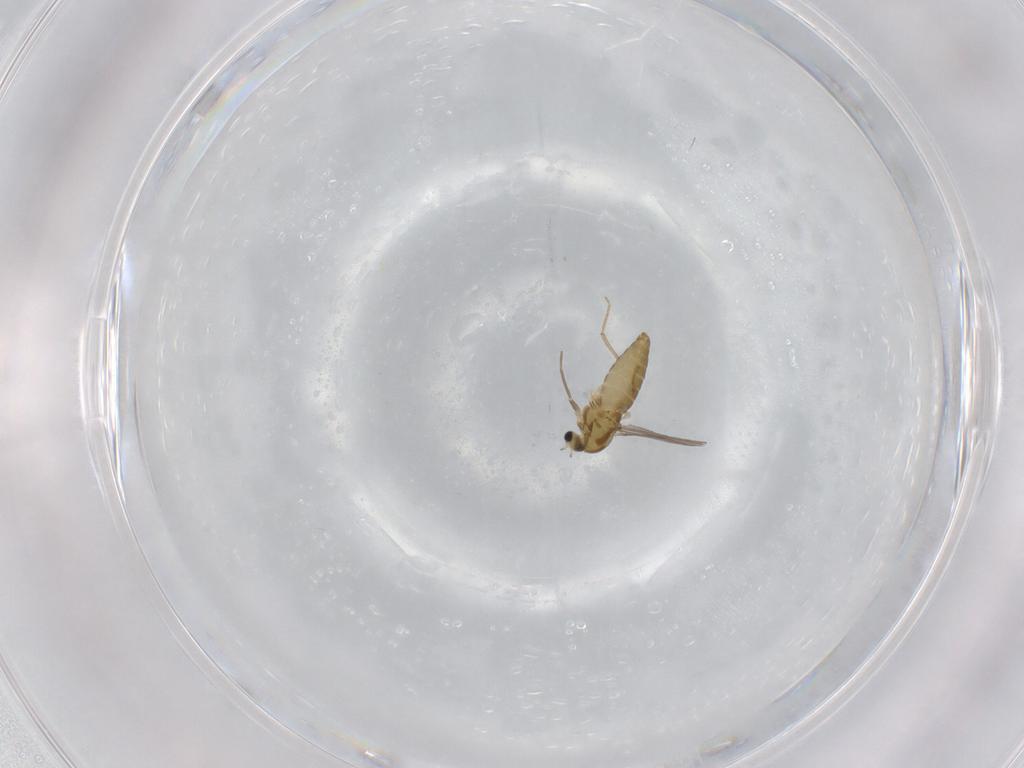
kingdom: Animalia
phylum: Arthropoda
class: Insecta
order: Diptera
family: Chironomidae
